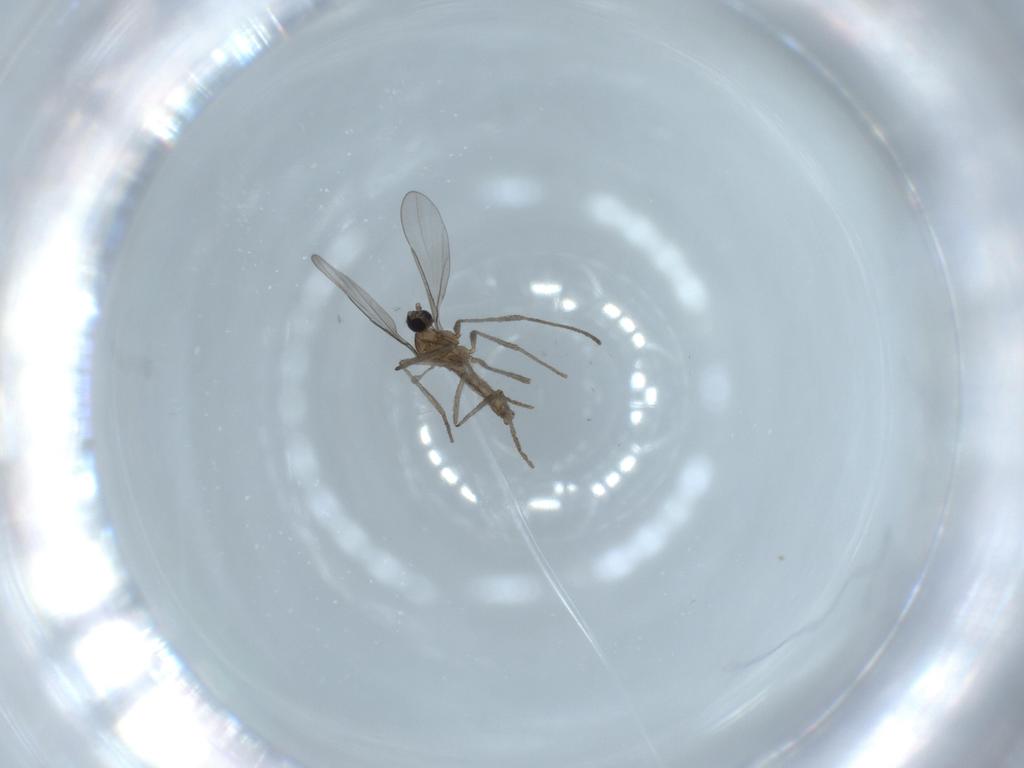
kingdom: Animalia
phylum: Arthropoda
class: Insecta
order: Diptera
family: Cecidomyiidae
